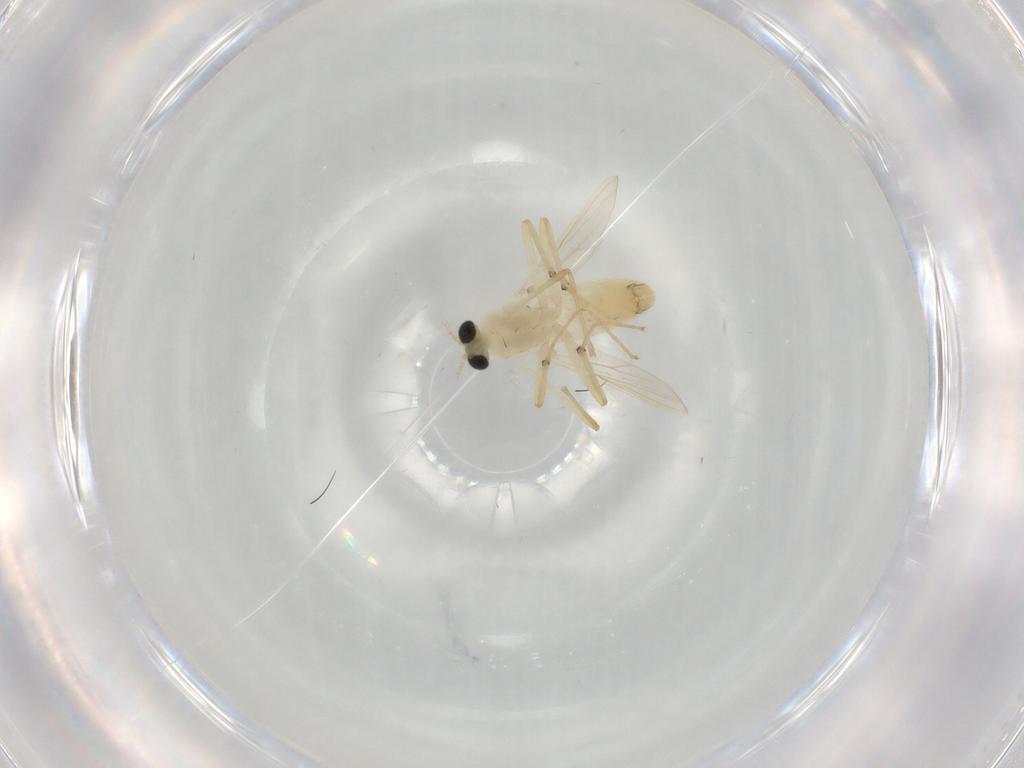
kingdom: Animalia
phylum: Arthropoda
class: Insecta
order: Diptera
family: Chironomidae
